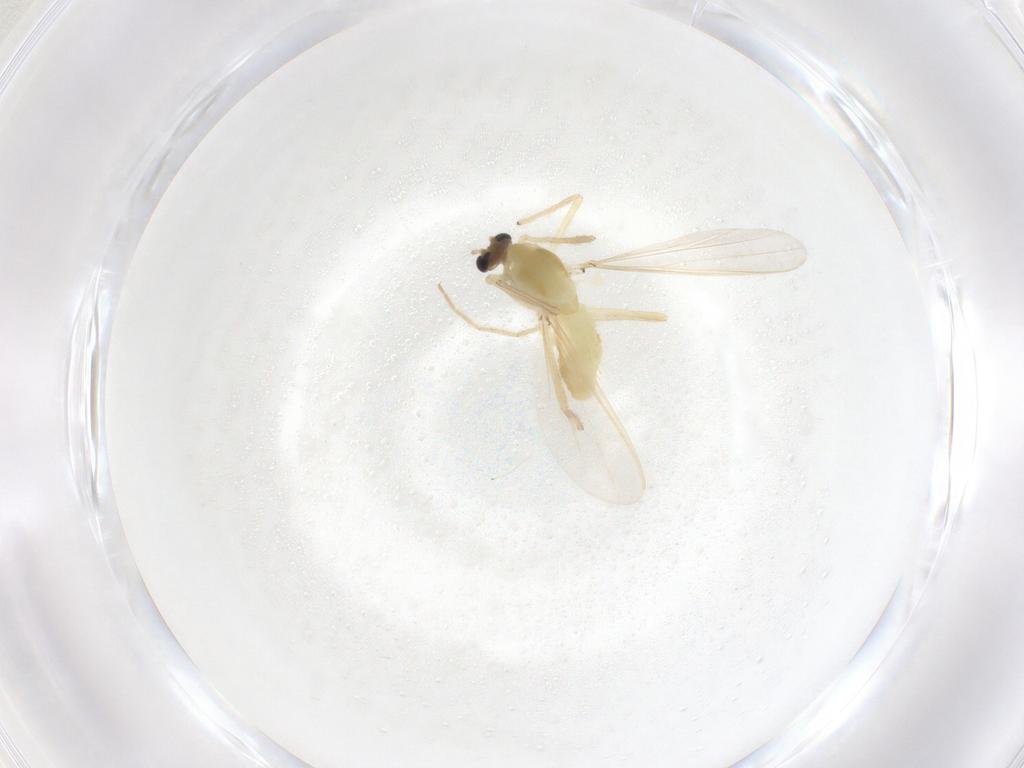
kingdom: Animalia
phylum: Arthropoda
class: Insecta
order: Diptera
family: Chironomidae
